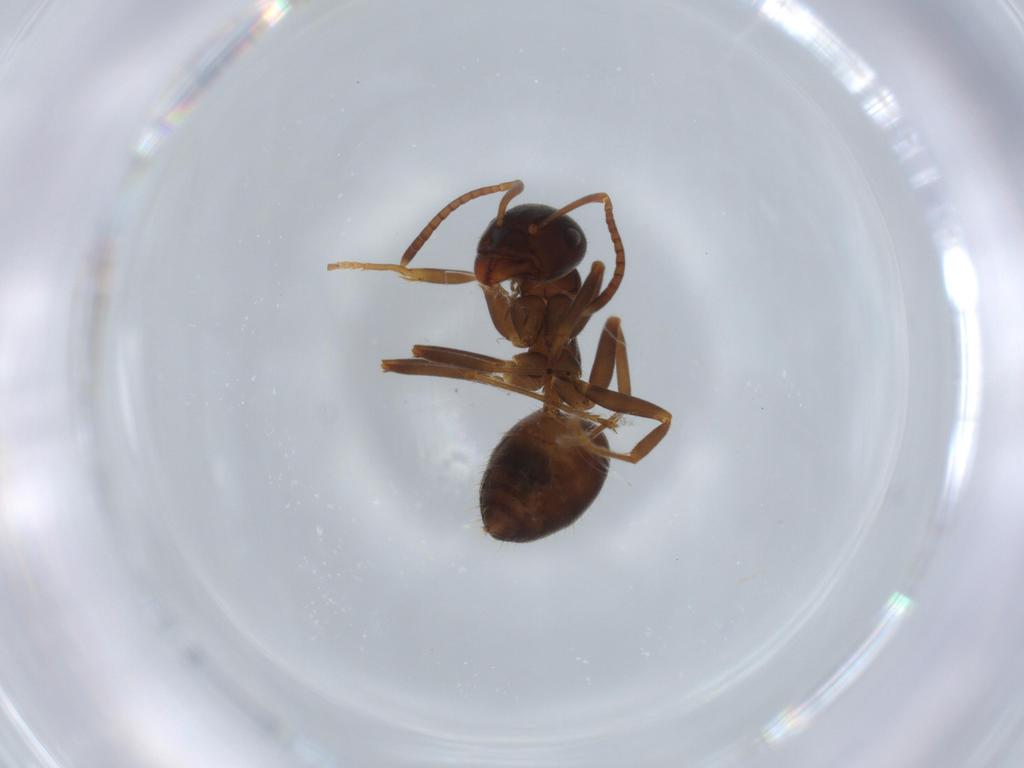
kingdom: Animalia
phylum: Arthropoda
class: Insecta
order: Hymenoptera
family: Formicidae
